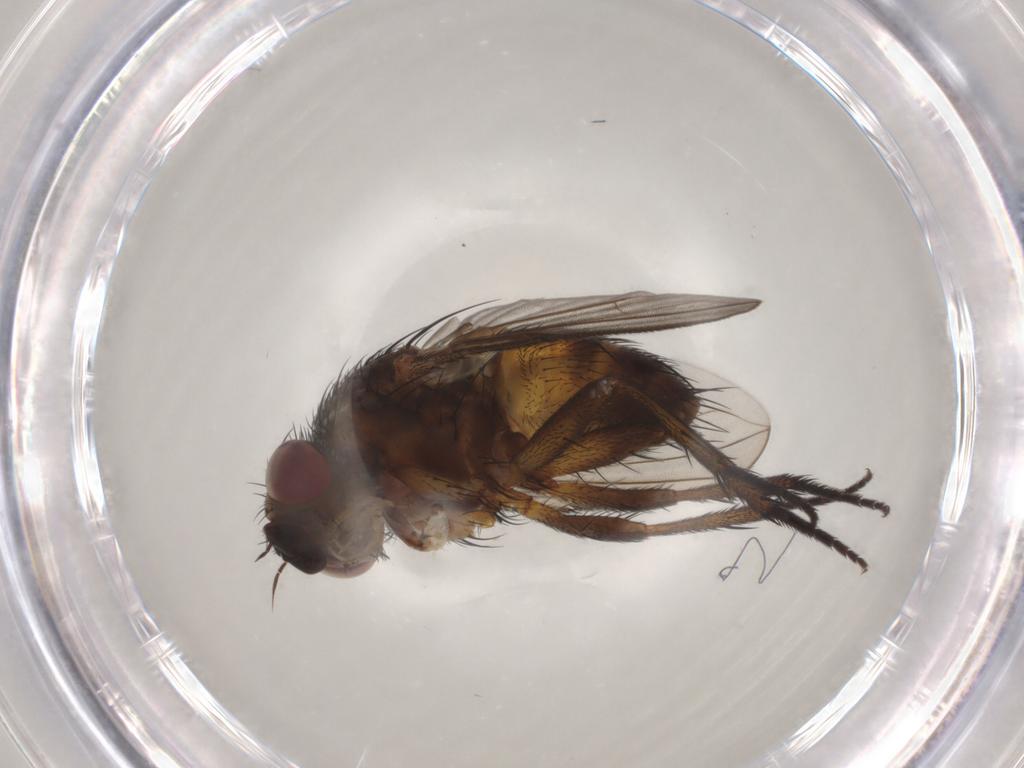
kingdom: Animalia
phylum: Arthropoda
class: Insecta
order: Diptera
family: Tachinidae
